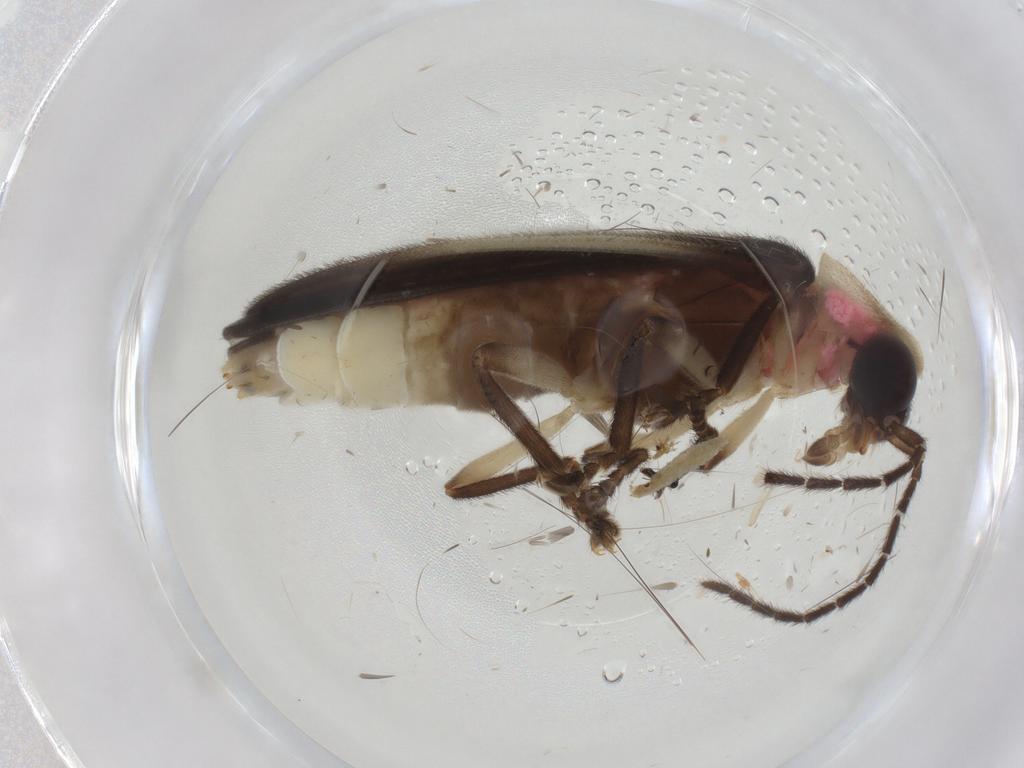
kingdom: Animalia
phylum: Arthropoda
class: Insecta
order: Coleoptera
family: Lampyridae
